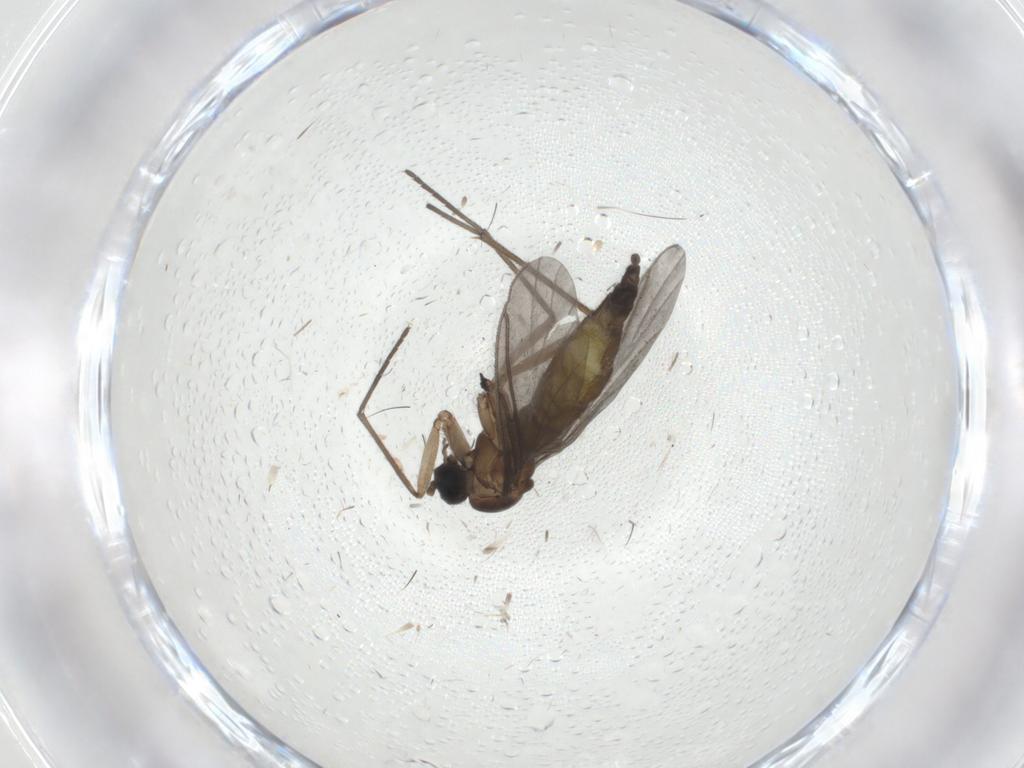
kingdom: Animalia
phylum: Arthropoda
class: Insecta
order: Diptera
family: Sciaridae
